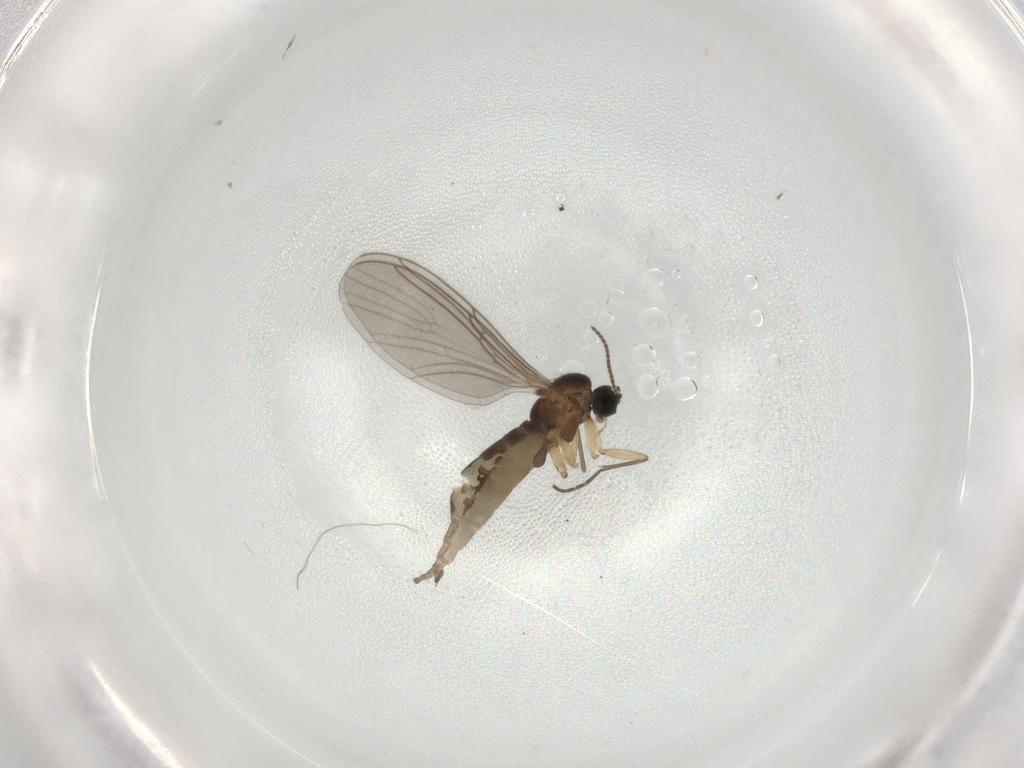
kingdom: Animalia
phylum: Arthropoda
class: Insecta
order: Diptera
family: Sciaridae
